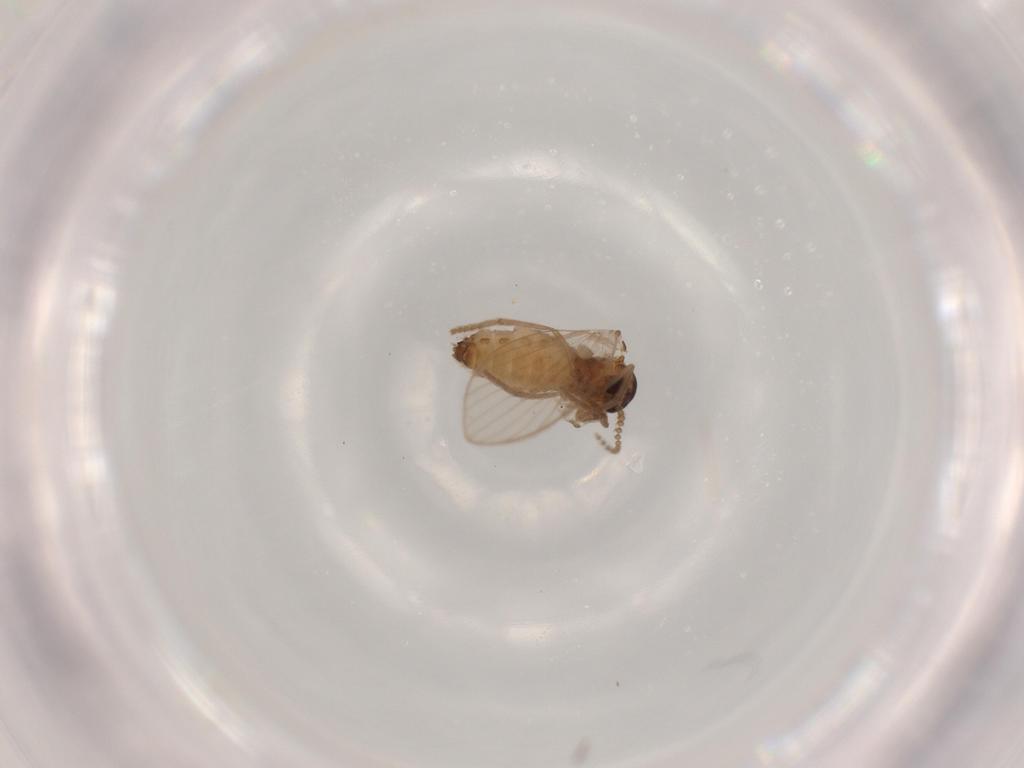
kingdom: Animalia
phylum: Arthropoda
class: Insecta
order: Diptera
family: Psychodidae
